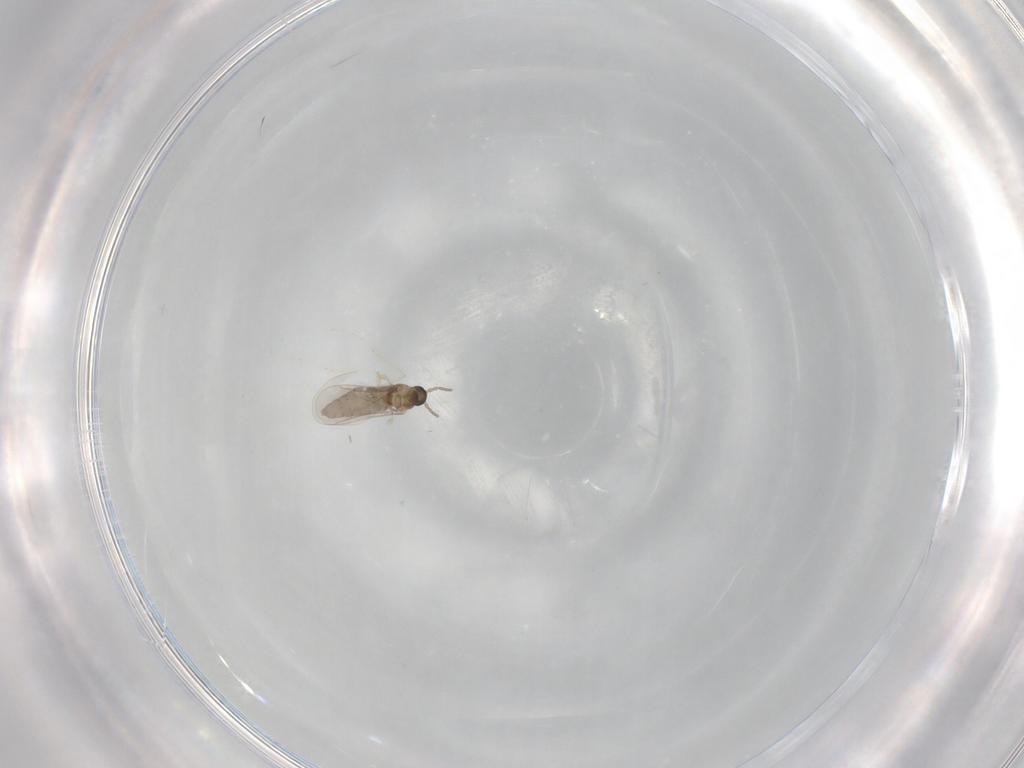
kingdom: Animalia
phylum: Arthropoda
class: Insecta
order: Diptera
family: Cecidomyiidae
